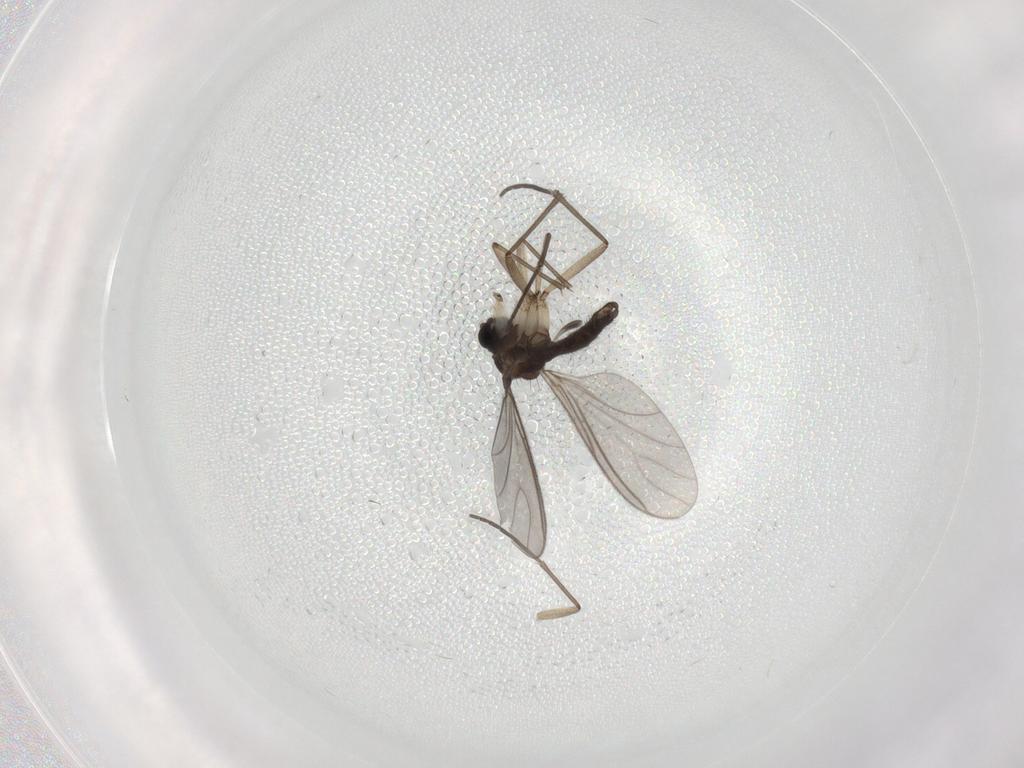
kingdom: Animalia
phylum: Arthropoda
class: Insecta
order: Diptera
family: Sciaridae
